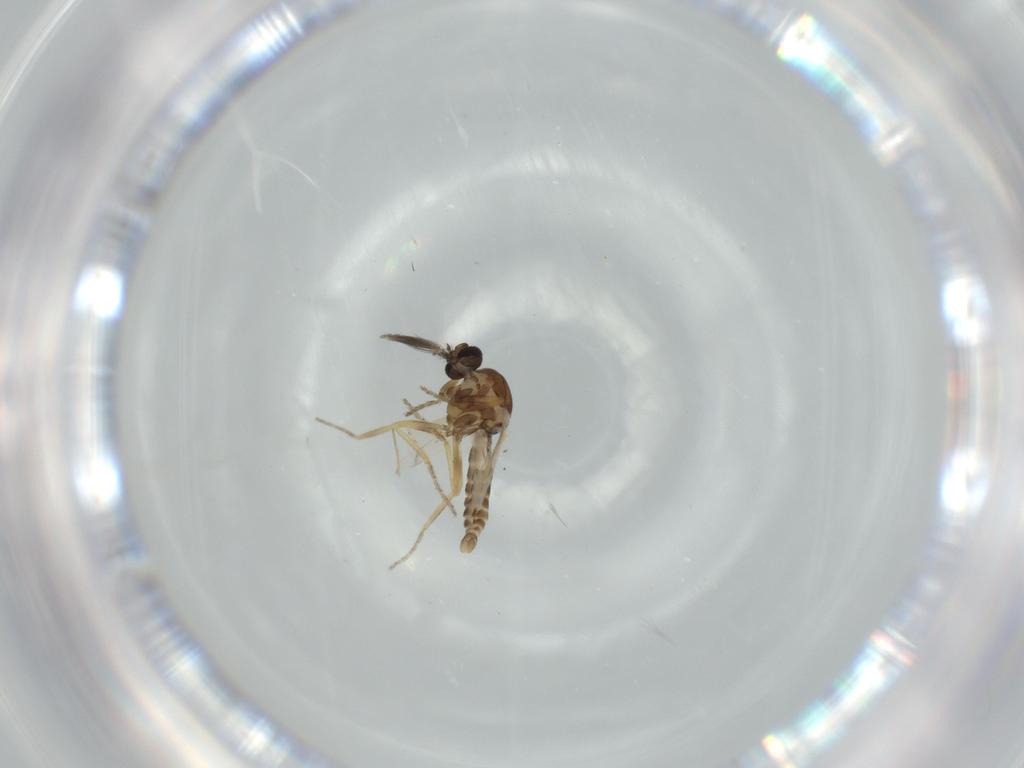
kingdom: Animalia
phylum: Arthropoda
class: Insecta
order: Diptera
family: Ceratopogonidae
